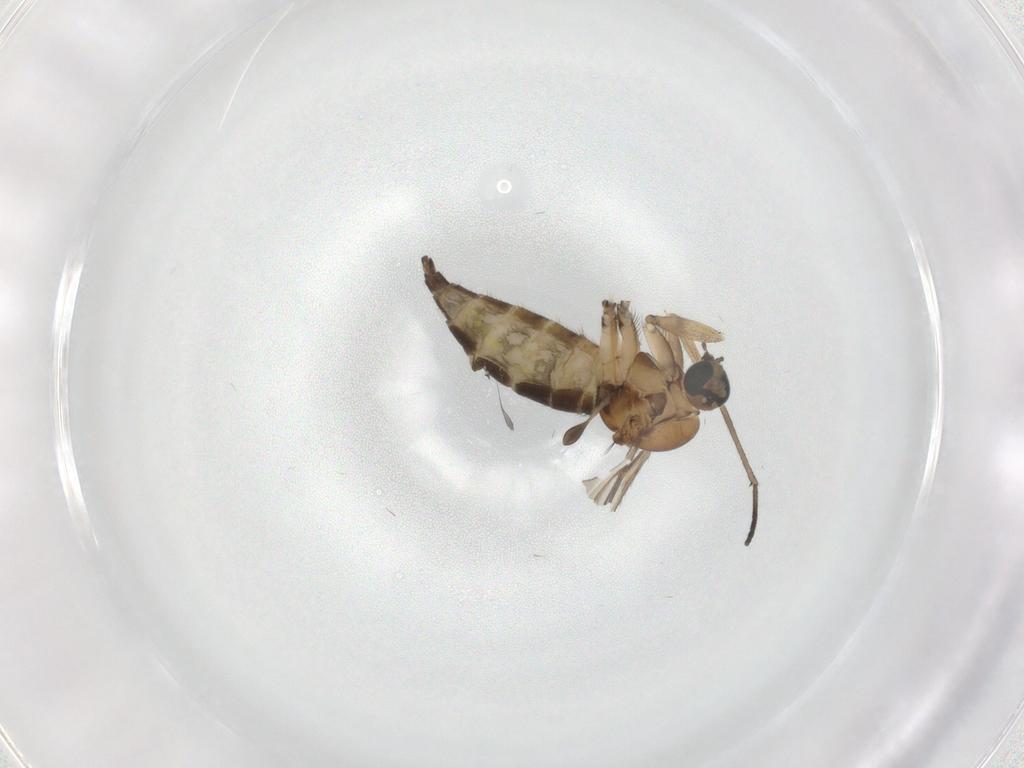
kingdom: Animalia
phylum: Arthropoda
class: Insecta
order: Diptera
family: Sciaridae
